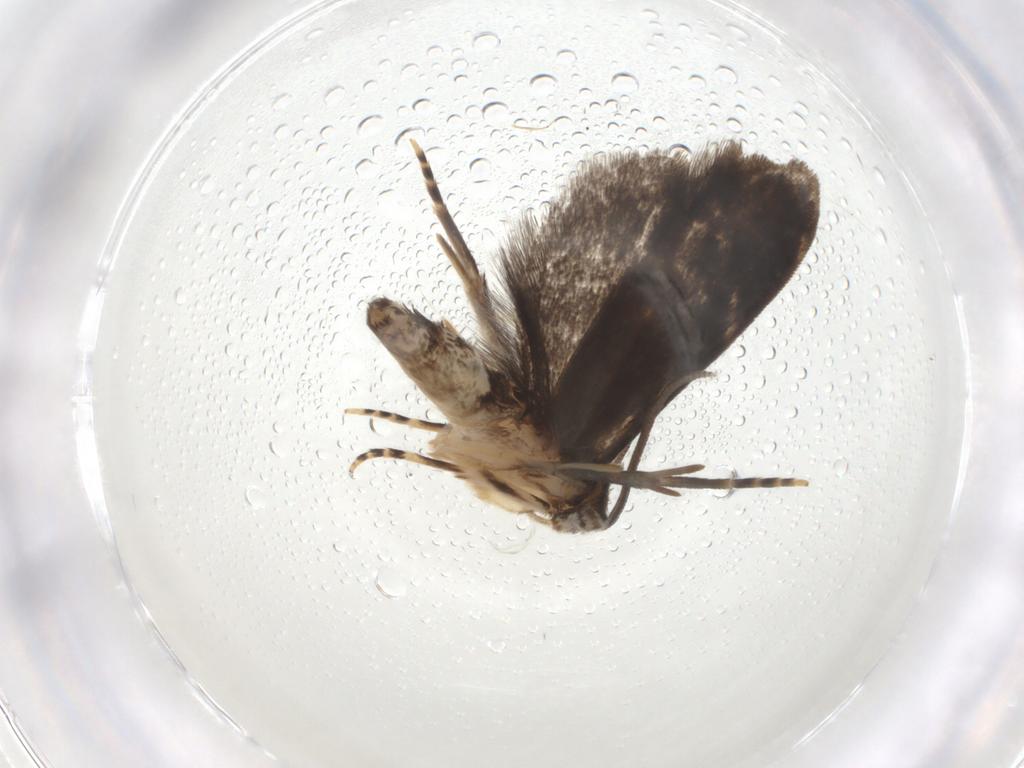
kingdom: Animalia
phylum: Arthropoda
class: Insecta
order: Lepidoptera
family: Dryadaulidae
